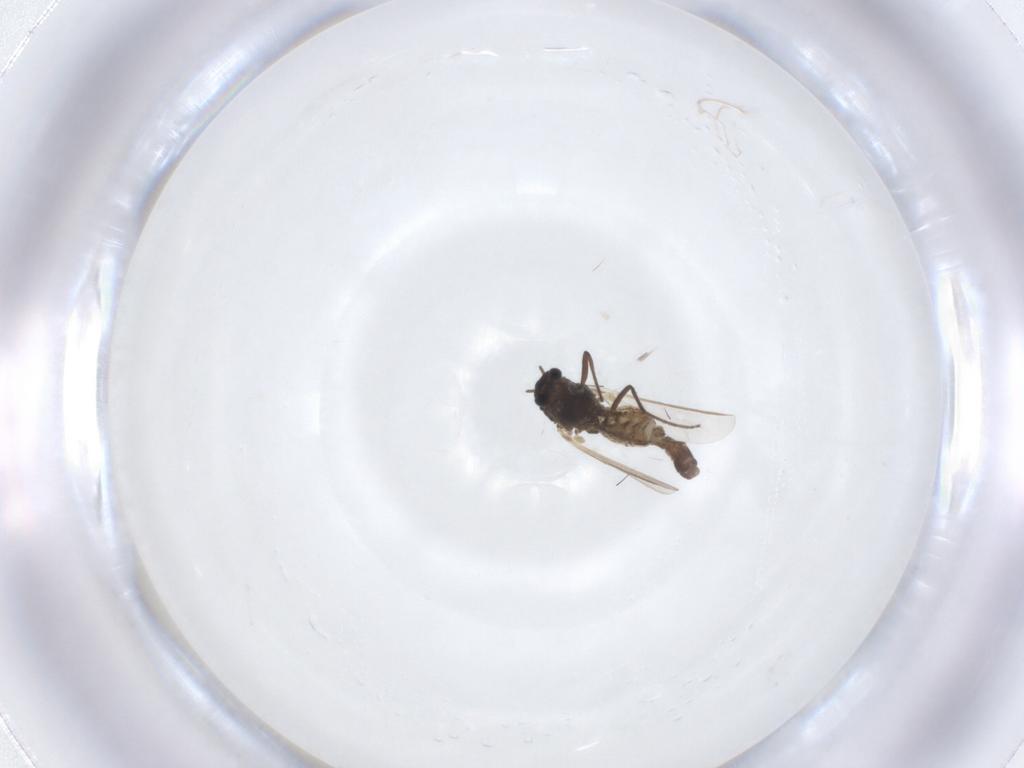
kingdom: Animalia
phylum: Arthropoda
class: Insecta
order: Diptera
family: Chironomidae
